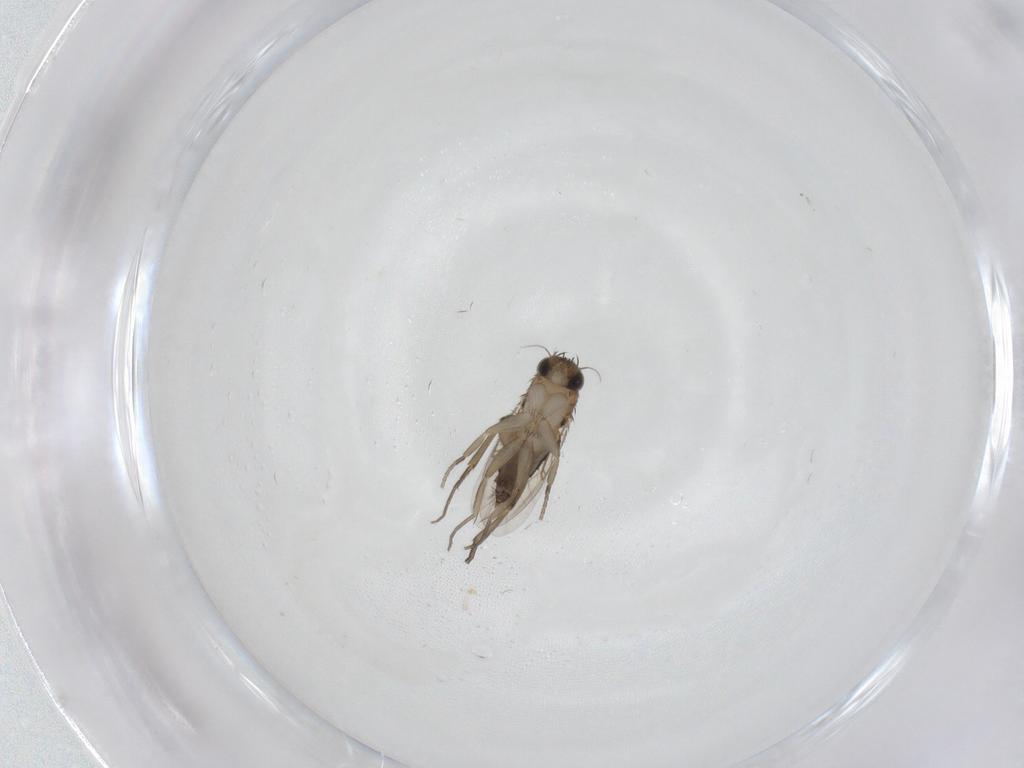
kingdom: Animalia
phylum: Arthropoda
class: Insecta
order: Diptera
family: Phoridae
